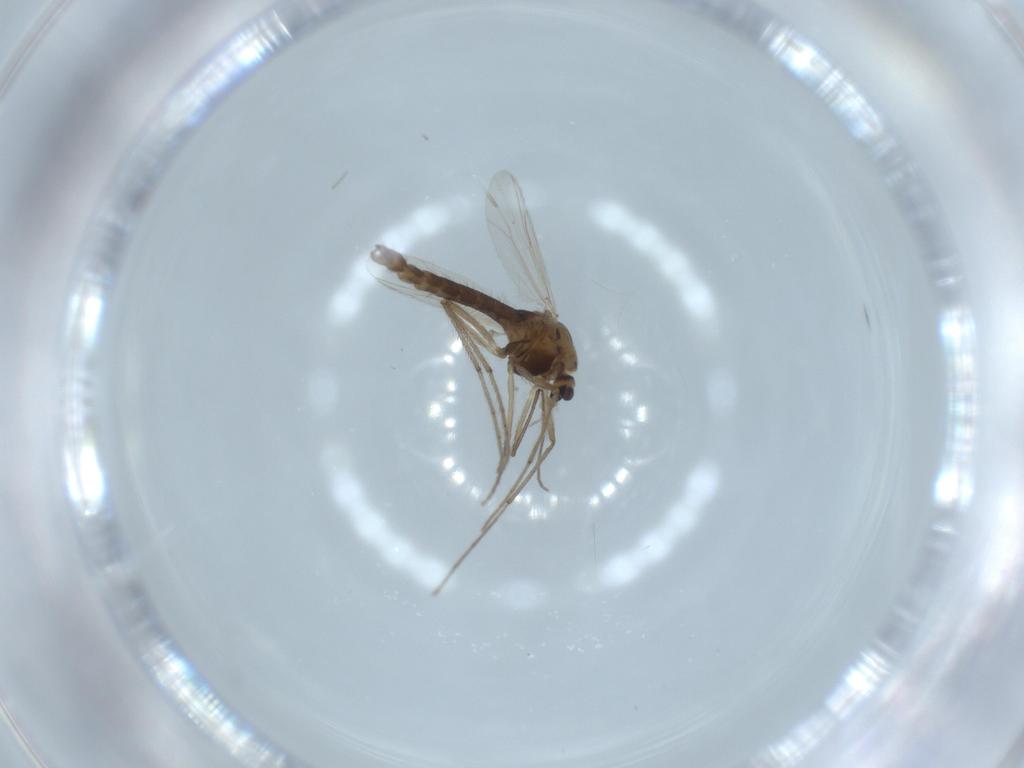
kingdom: Animalia
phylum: Arthropoda
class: Insecta
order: Diptera
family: Chironomidae
